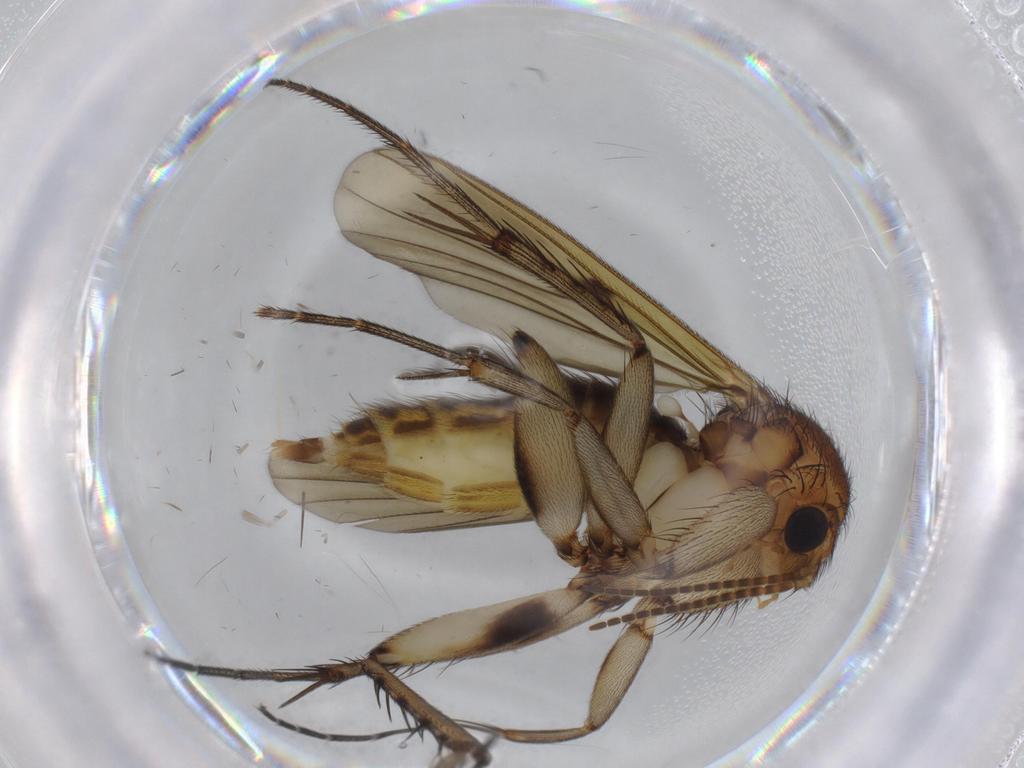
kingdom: Animalia
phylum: Arthropoda
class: Insecta
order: Diptera
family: Mycetophilidae
